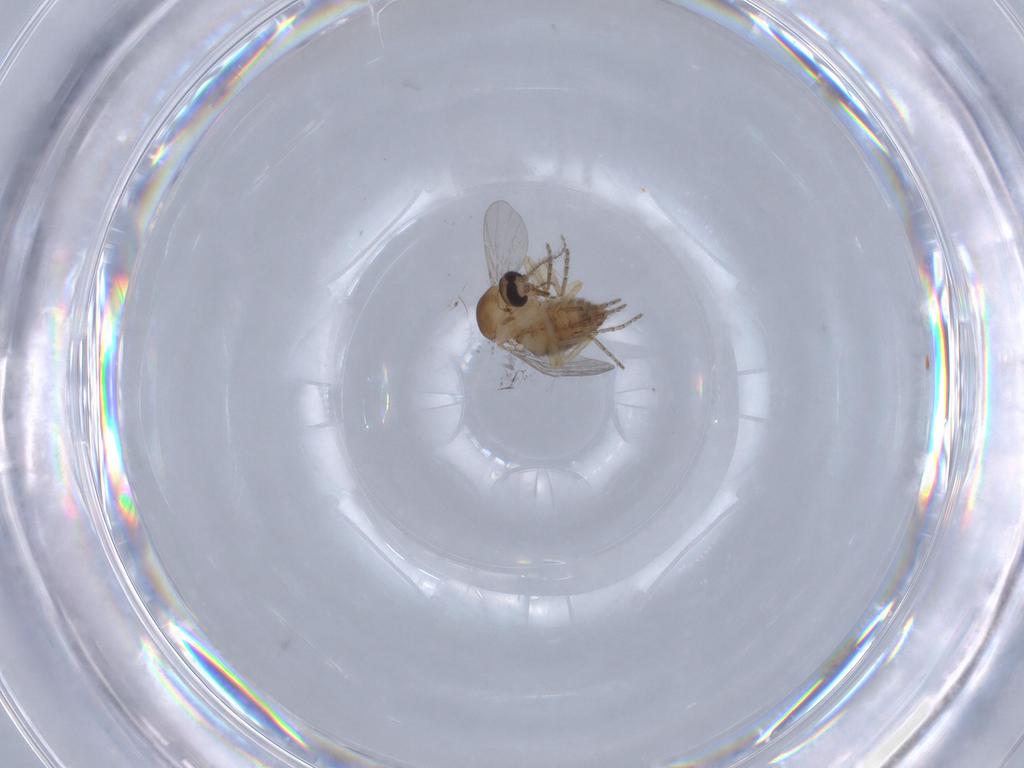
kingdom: Animalia
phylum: Arthropoda
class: Insecta
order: Diptera
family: Ceratopogonidae
